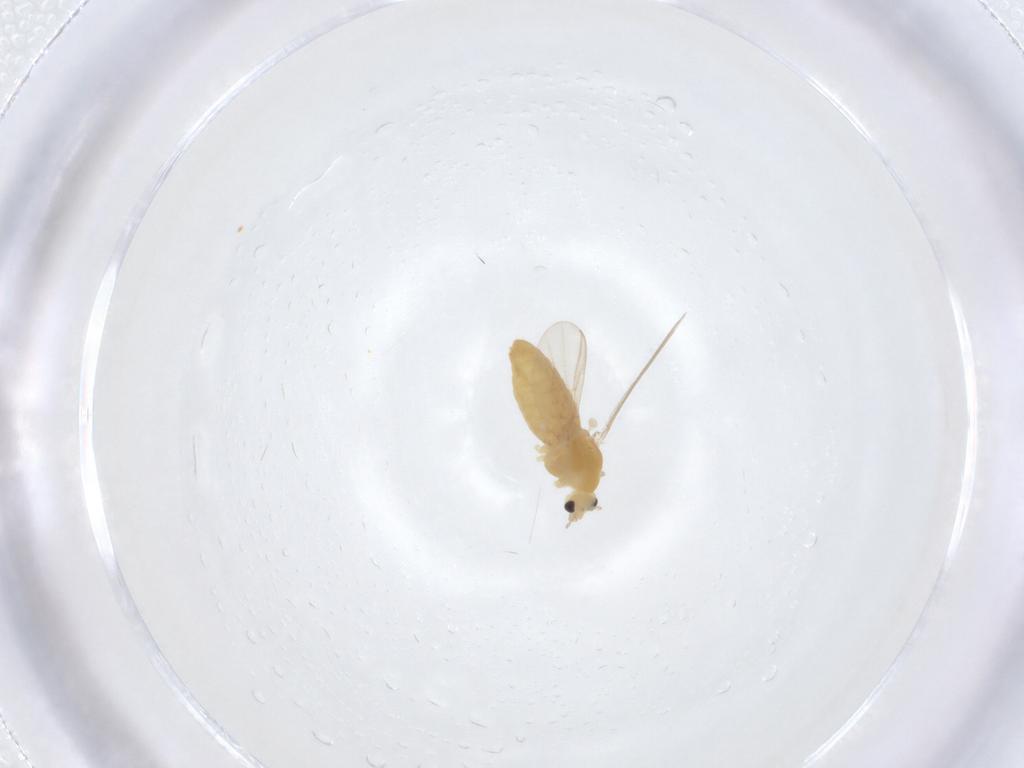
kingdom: Animalia
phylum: Arthropoda
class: Insecta
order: Diptera
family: Chironomidae
